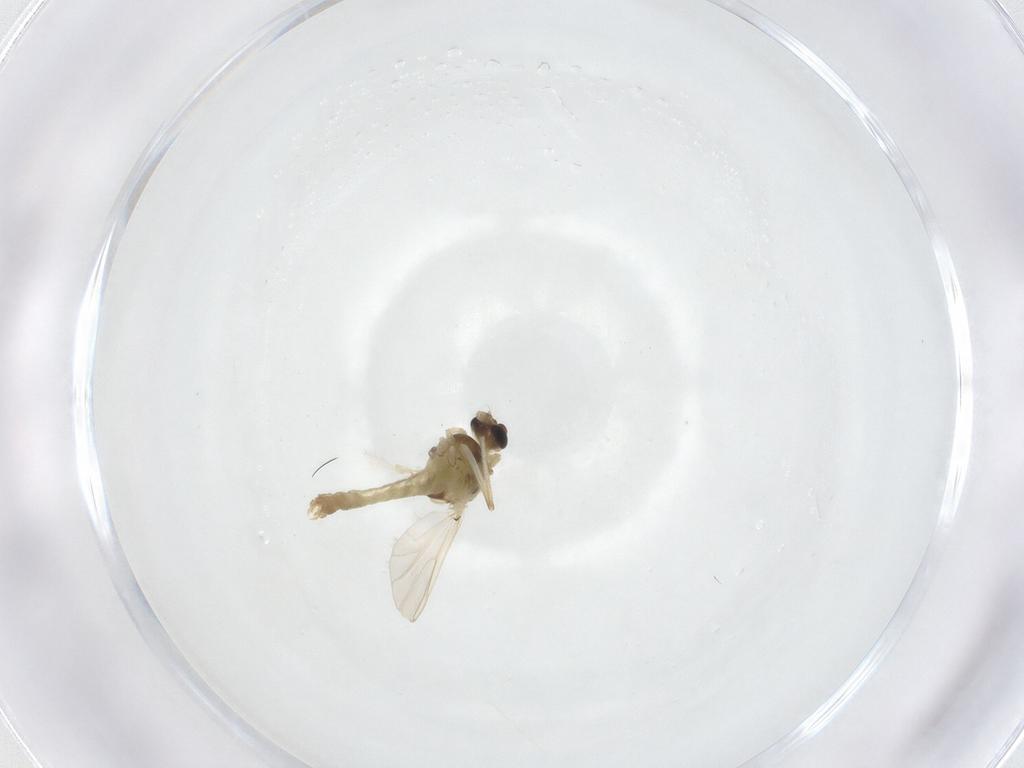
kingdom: Animalia
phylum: Arthropoda
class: Insecta
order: Diptera
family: Chironomidae
